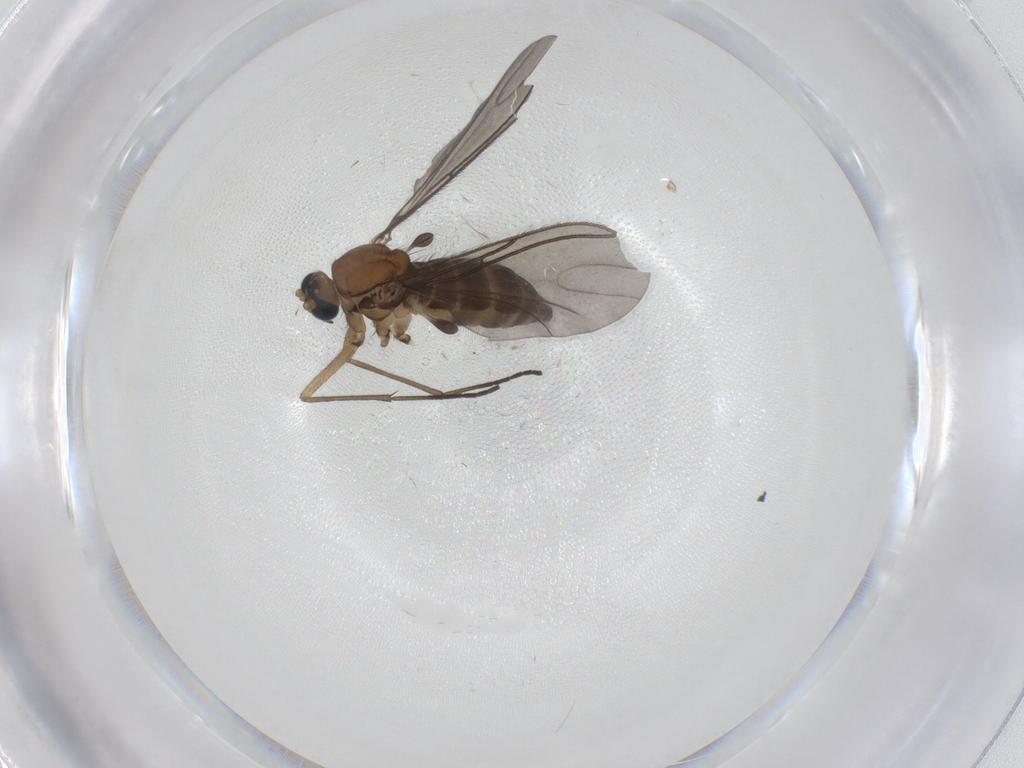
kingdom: Animalia
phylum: Arthropoda
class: Insecta
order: Diptera
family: Sciaridae
